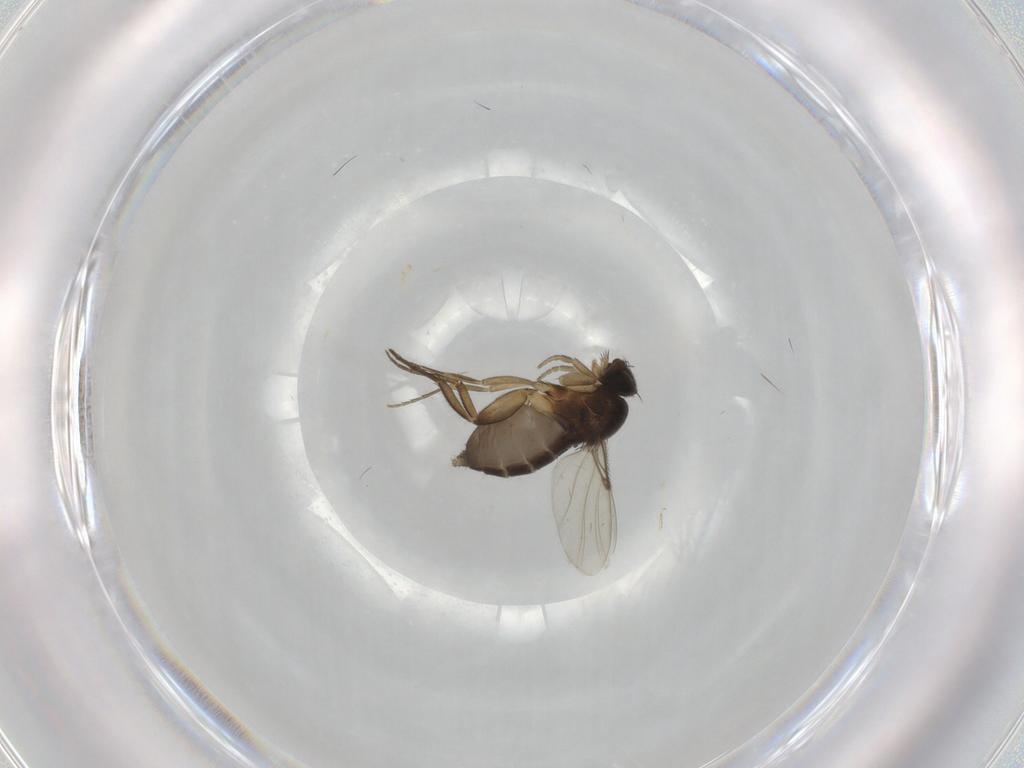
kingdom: Animalia
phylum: Arthropoda
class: Insecta
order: Diptera
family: Phoridae
